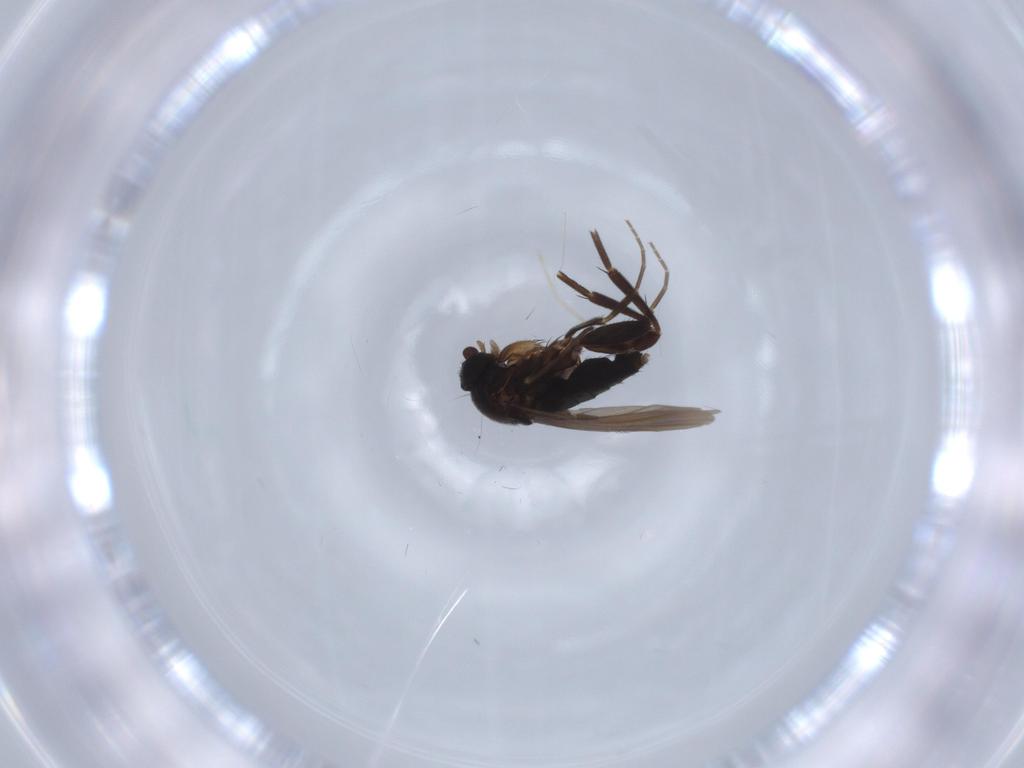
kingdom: Animalia
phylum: Arthropoda
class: Insecta
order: Diptera
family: Phoridae
